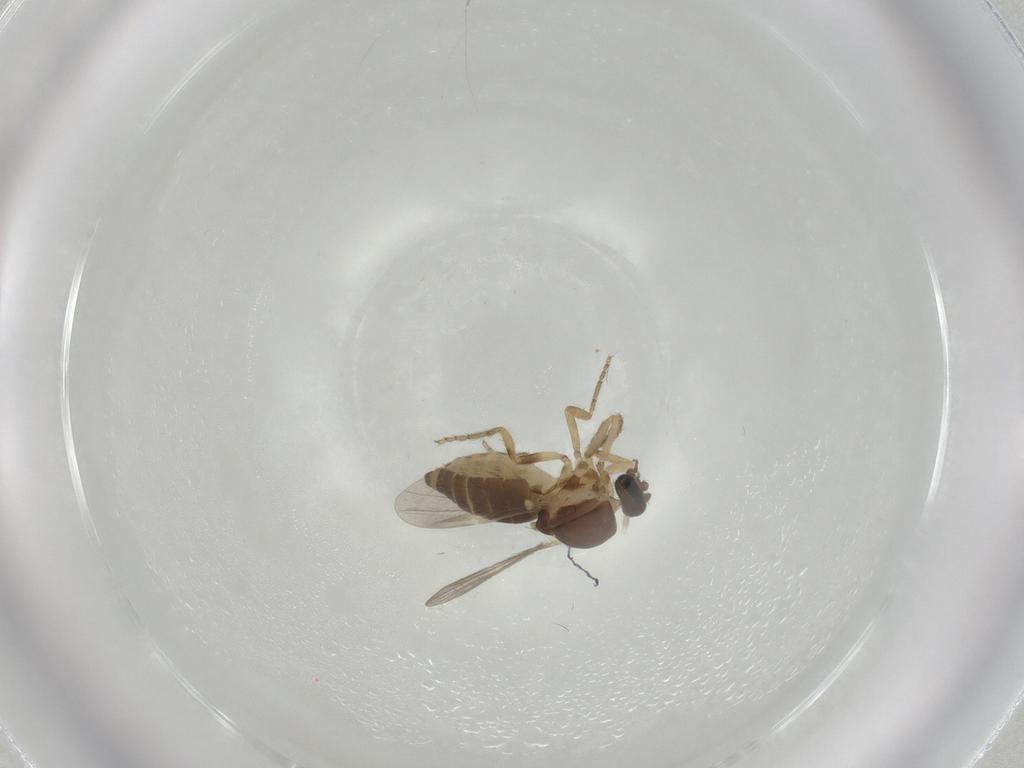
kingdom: Animalia
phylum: Arthropoda
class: Insecta
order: Diptera
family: Ceratopogonidae
